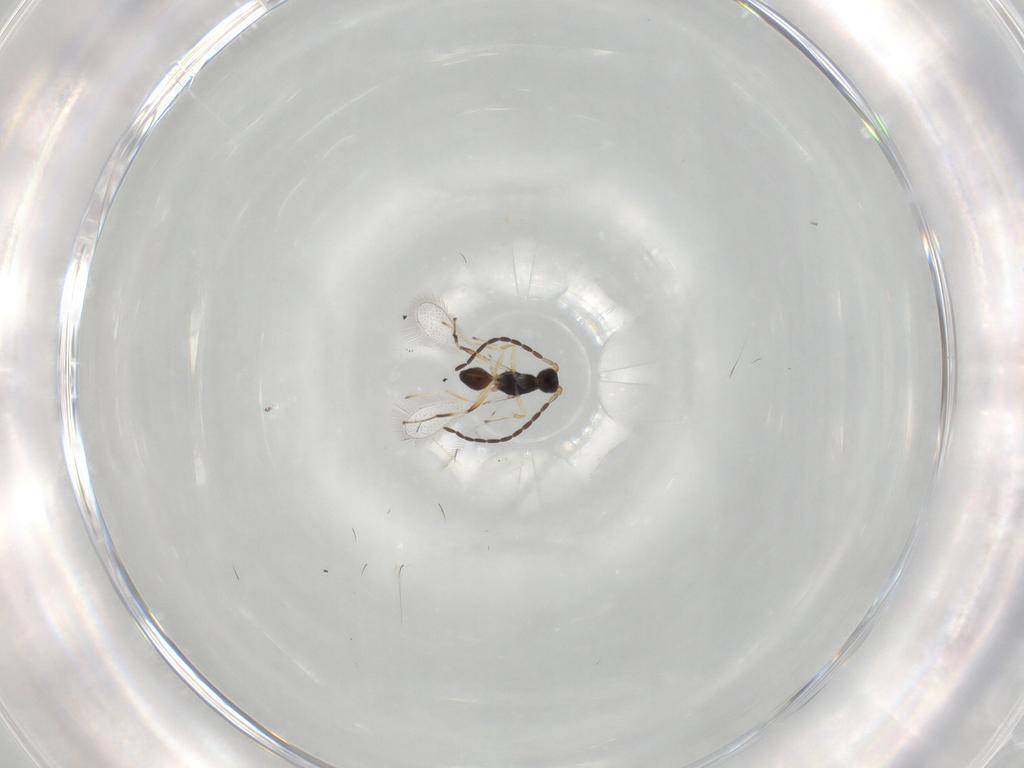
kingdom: Animalia
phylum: Arthropoda
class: Insecta
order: Hymenoptera
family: Mymaridae
